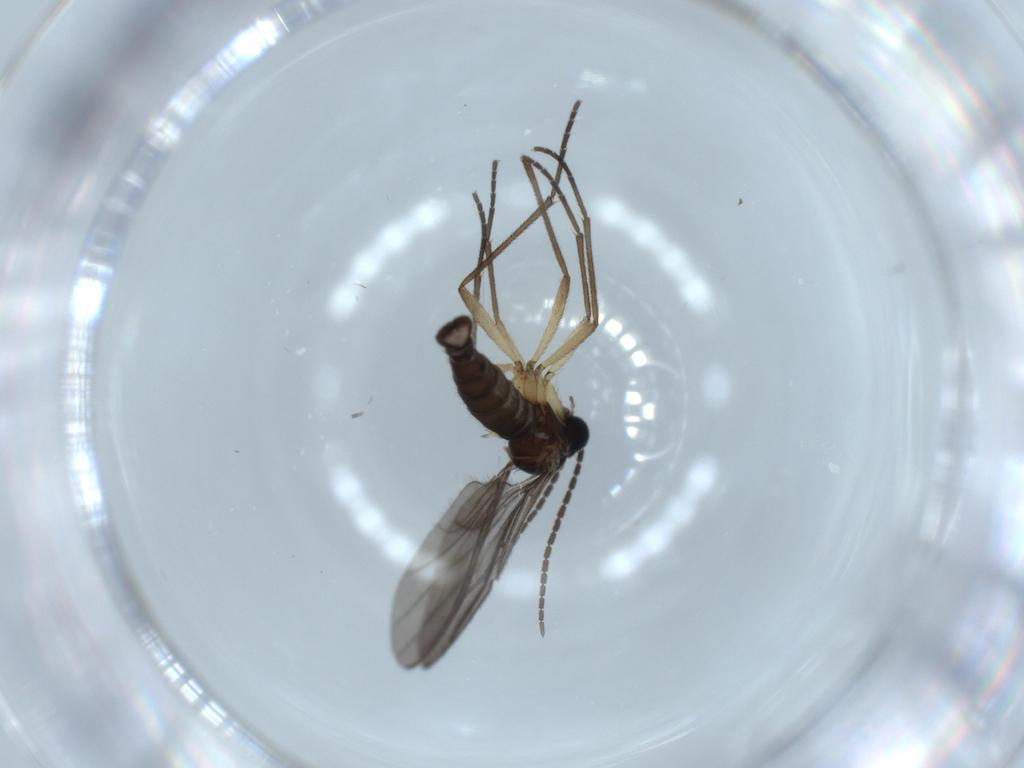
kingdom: Animalia
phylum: Arthropoda
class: Insecta
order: Diptera
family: Sciaridae
